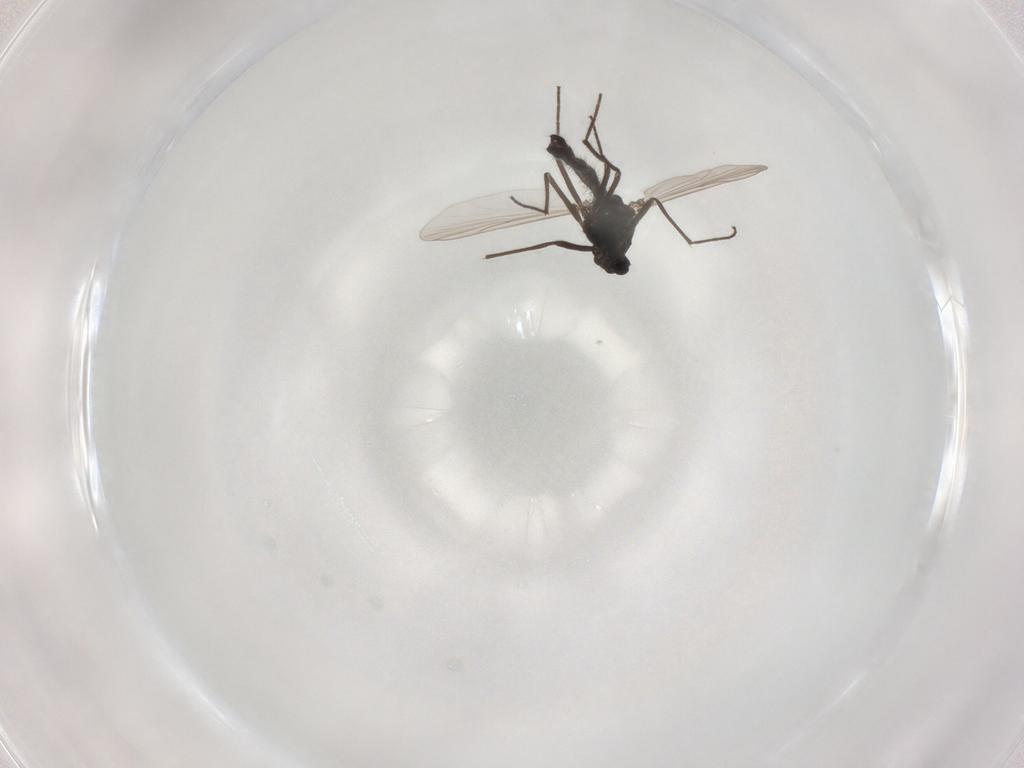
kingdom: Animalia
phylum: Arthropoda
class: Insecta
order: Diptera
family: Chironomidae
